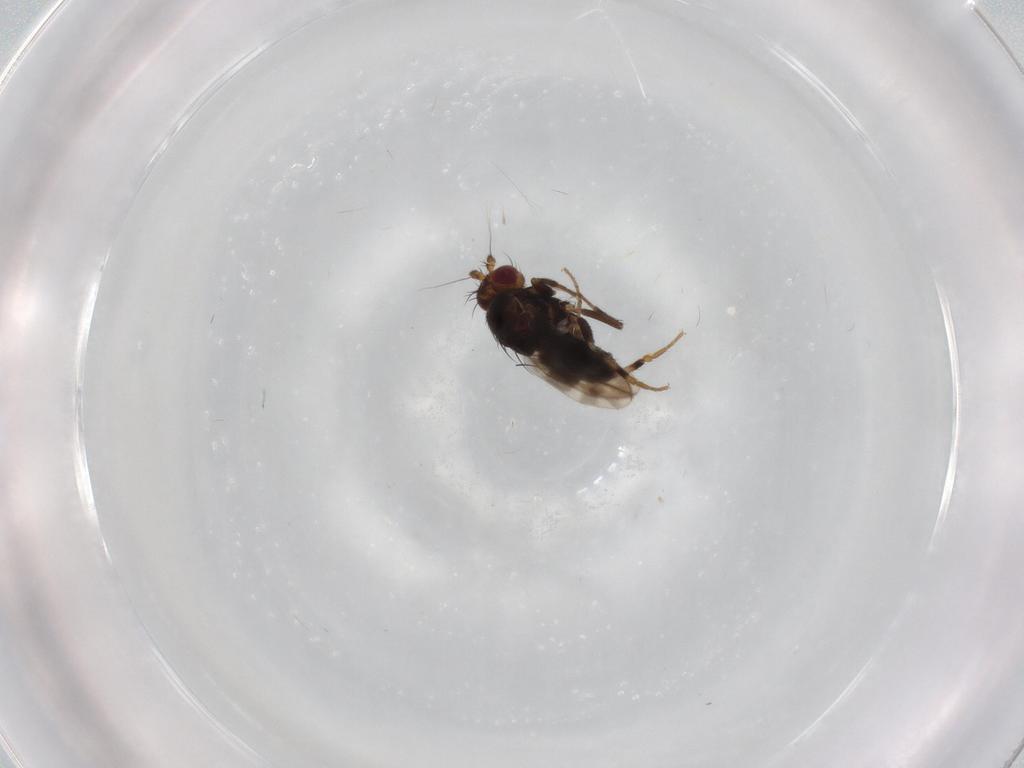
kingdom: Animalia
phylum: Arthropoda
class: Insecta
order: Diptera
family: Sphaeroceridae
